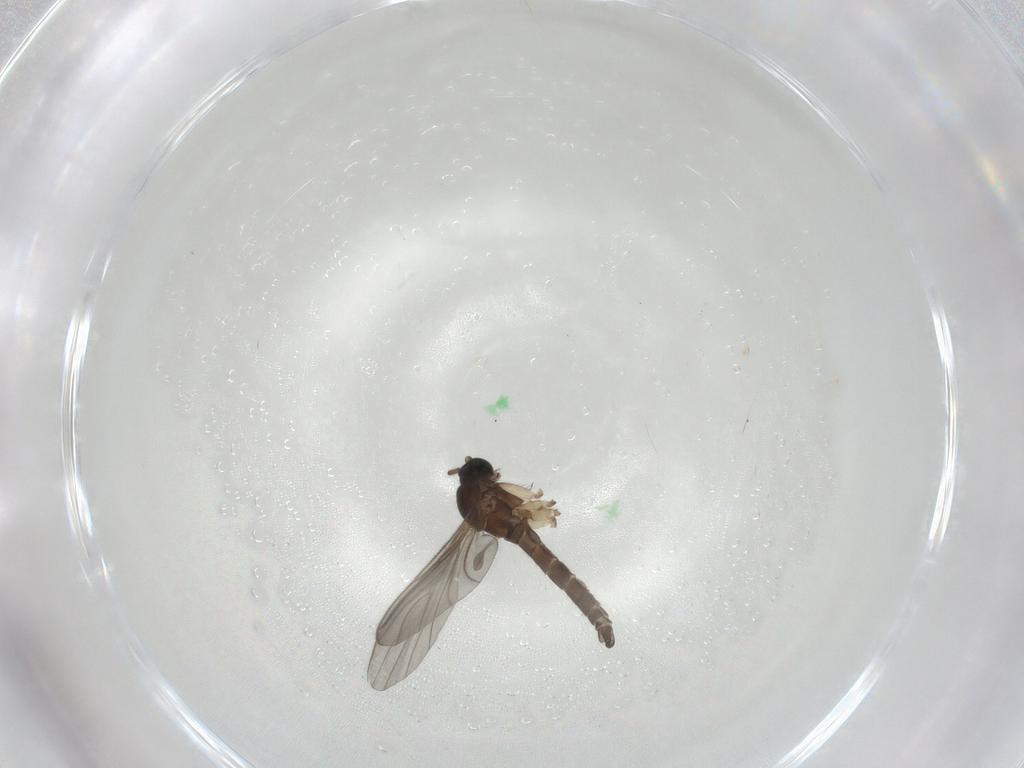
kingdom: Animalia
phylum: Arthropoda
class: Insecta
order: Diptera
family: Sciaridae
